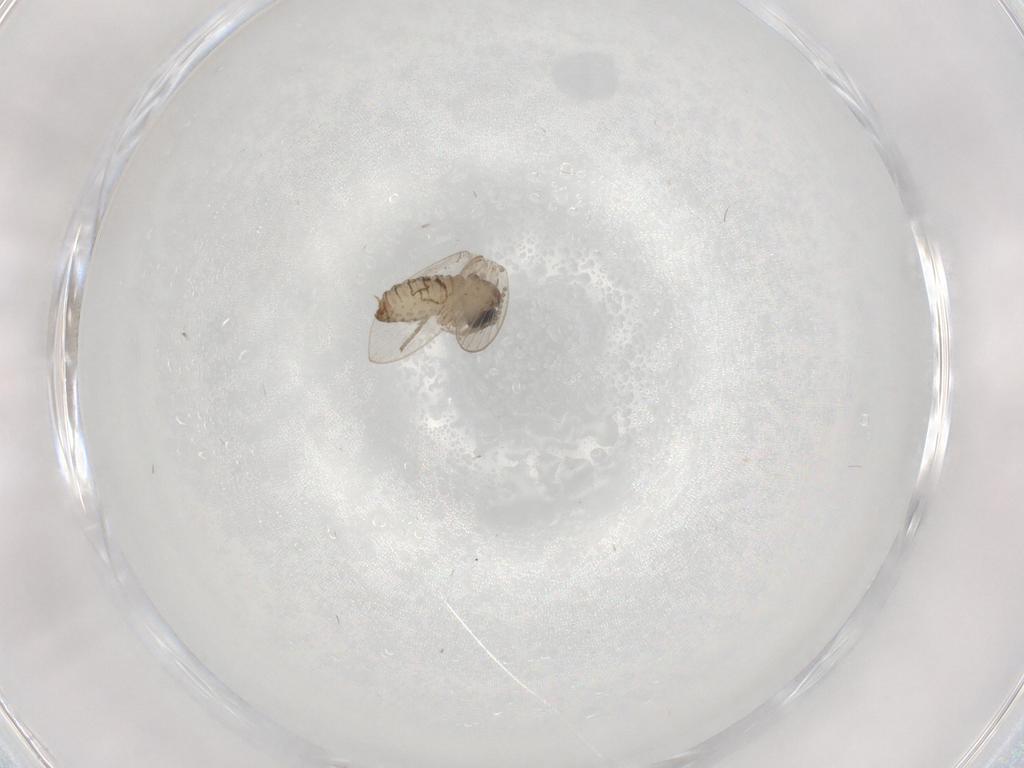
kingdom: Animalia
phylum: Arthropoda
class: Insecta
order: Diptera
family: Psychodidae
